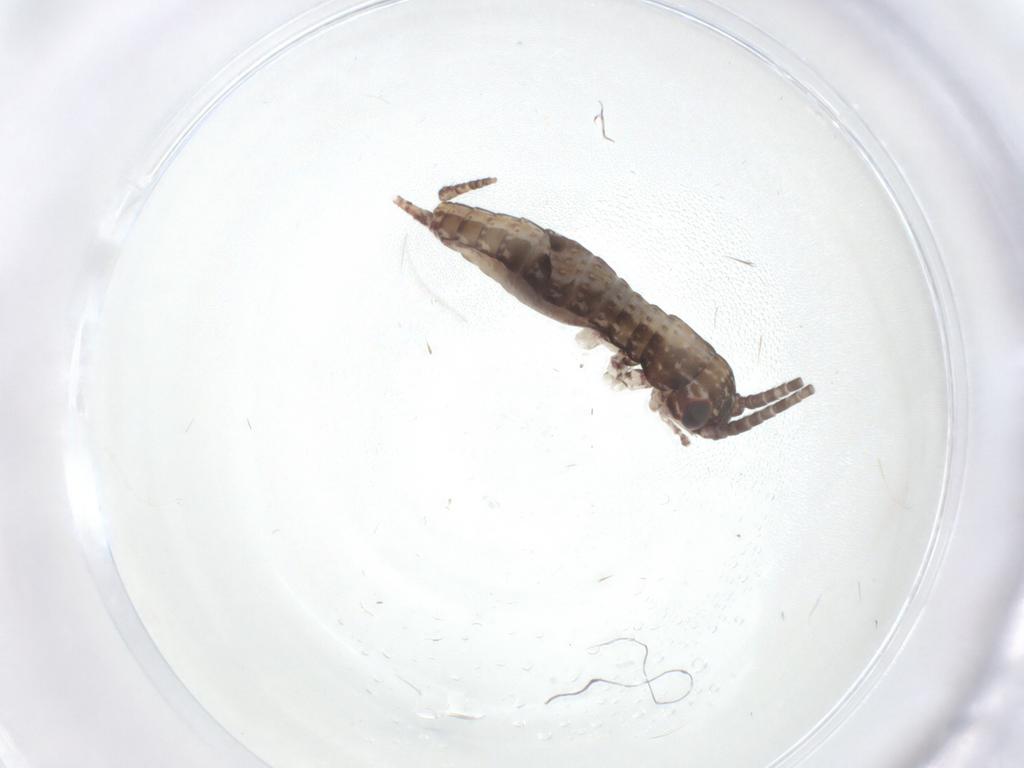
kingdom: Animalia
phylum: Arthropoda
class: Insecta
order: Orthoptera
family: Gryllidae
